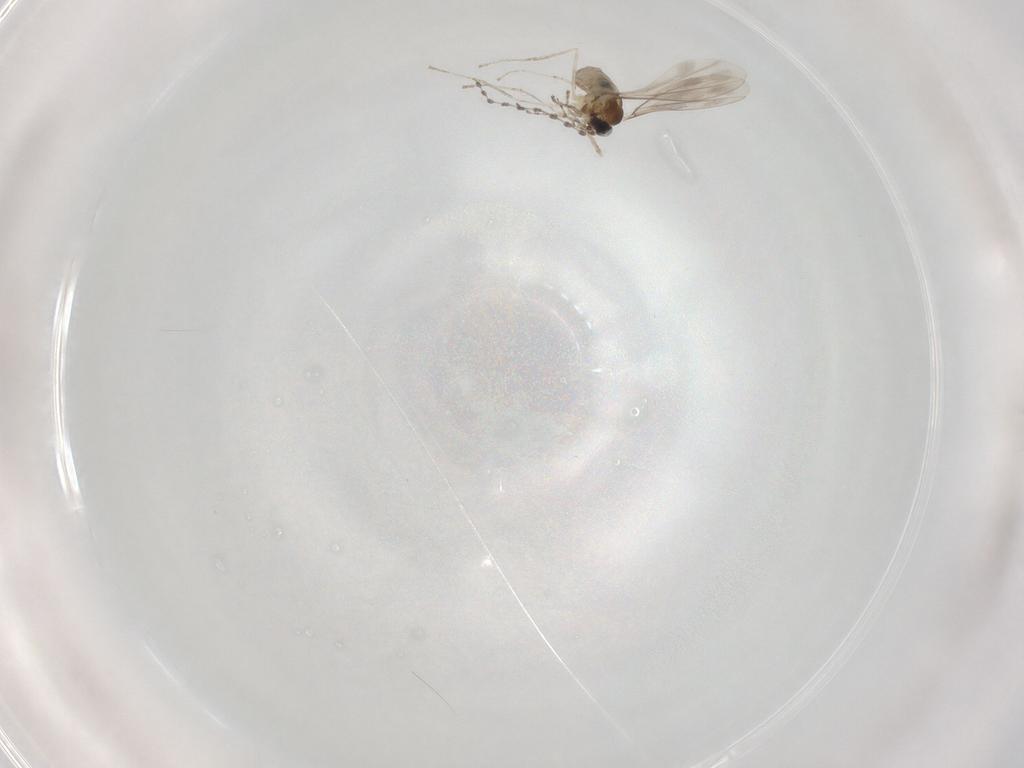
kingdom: Animalia
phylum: Arthropoda
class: Insecta
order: Diptera
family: Cecidomyiidae
